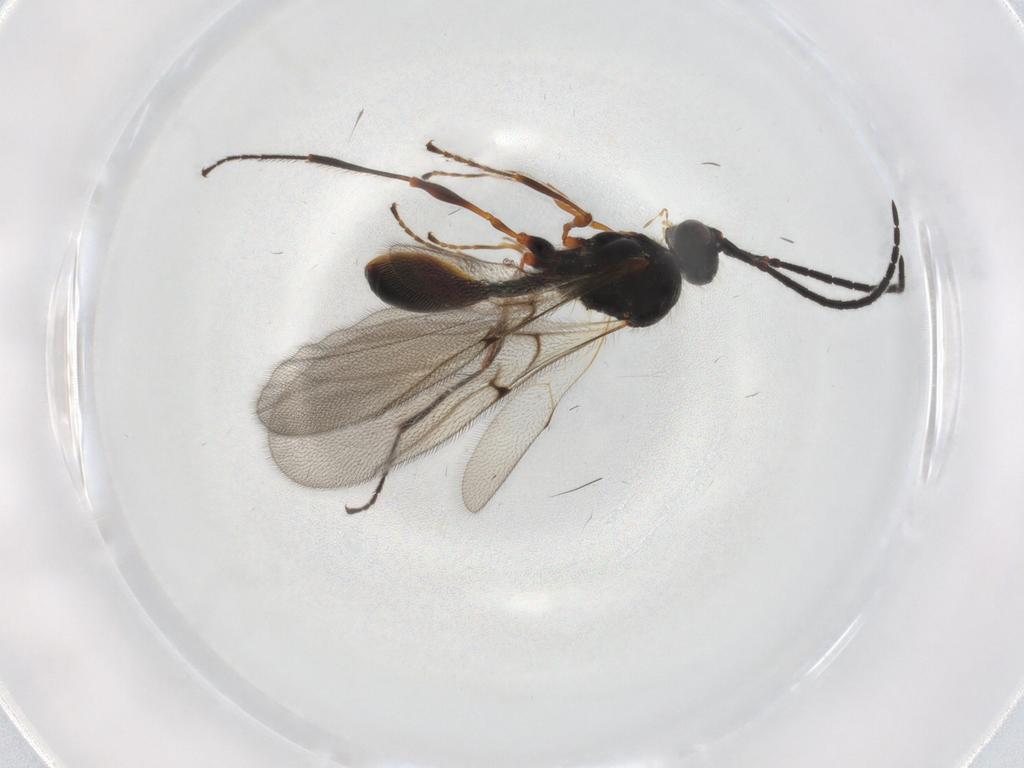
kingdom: Animalia
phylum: Arthropoda
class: Insecta
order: Hymenoptera
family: Diapriidae
